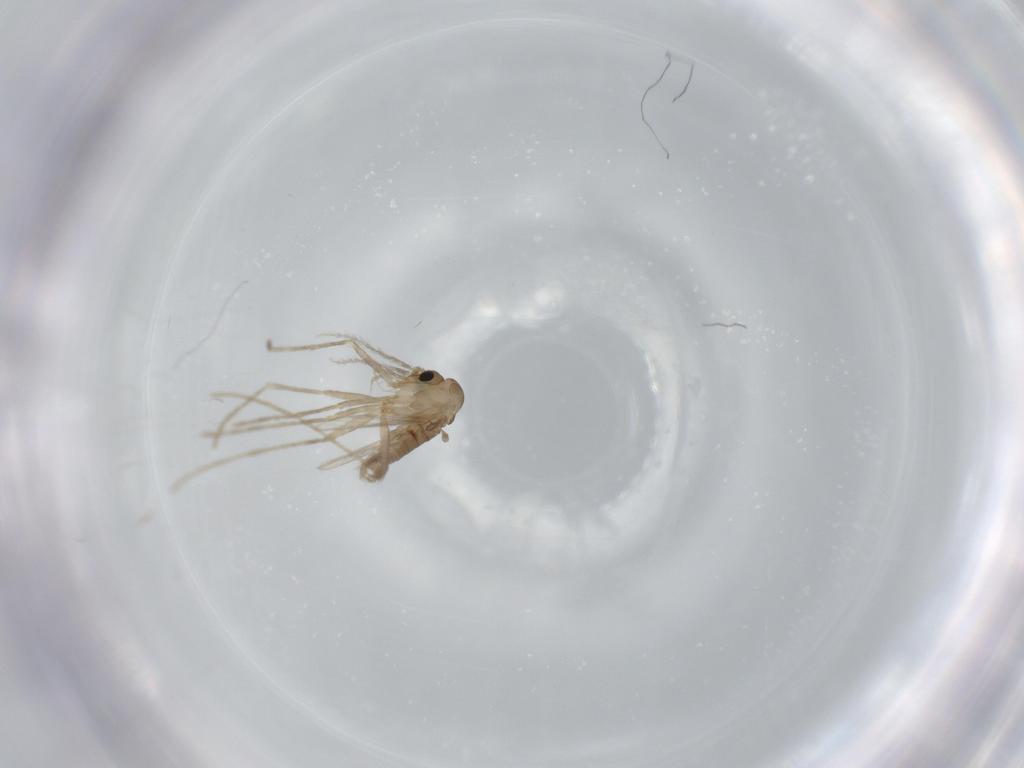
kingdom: Animalia
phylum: Arthropoda
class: Insecta
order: Diptera
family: Psychodidae
